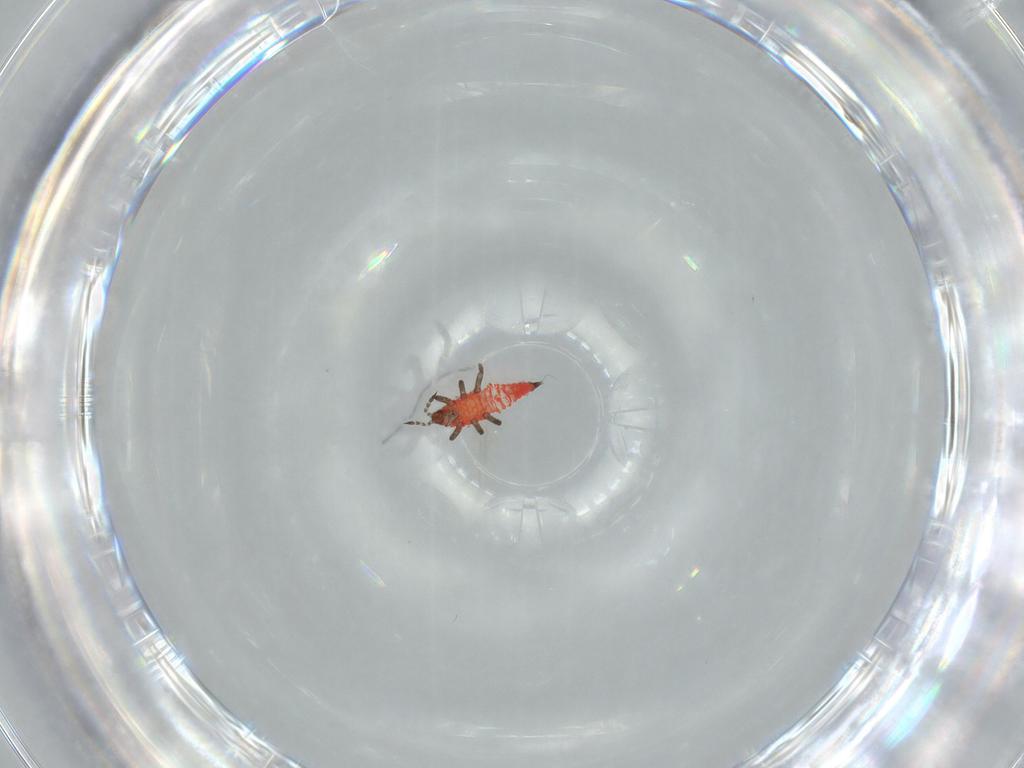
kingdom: Animalia
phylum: Arthropoda
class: Insecta
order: Thysanoptera
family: Phlaeothripidae
